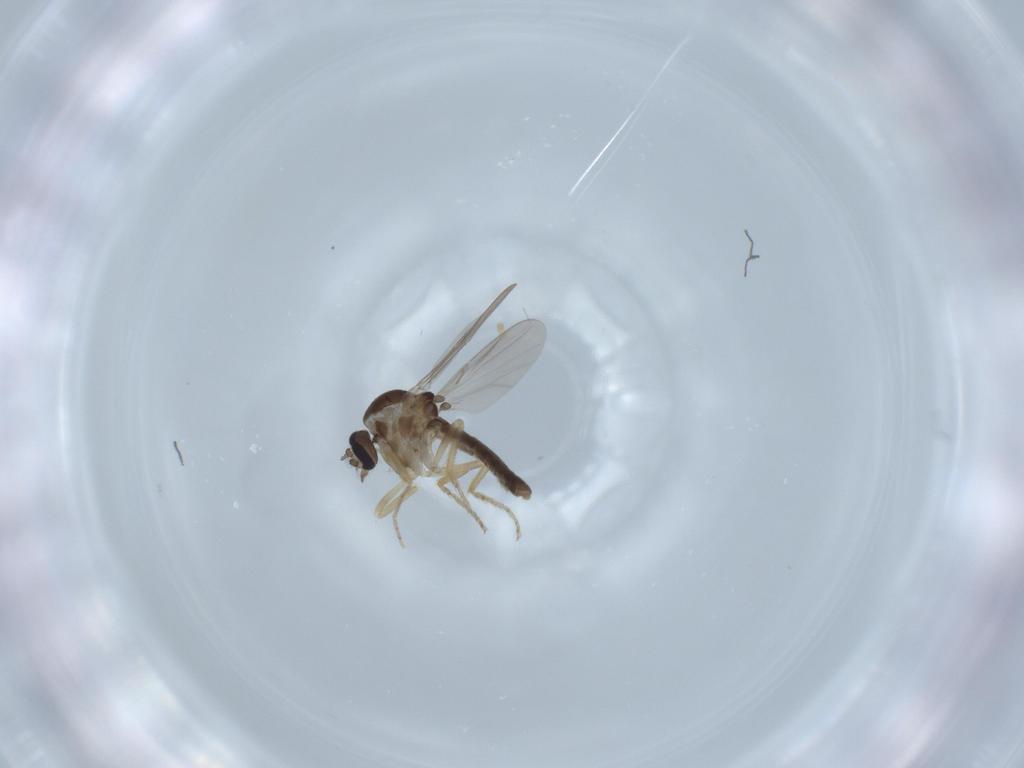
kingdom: Animalia
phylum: Arthropoda
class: Insecta
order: Diptera
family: Ceratopogonidae
